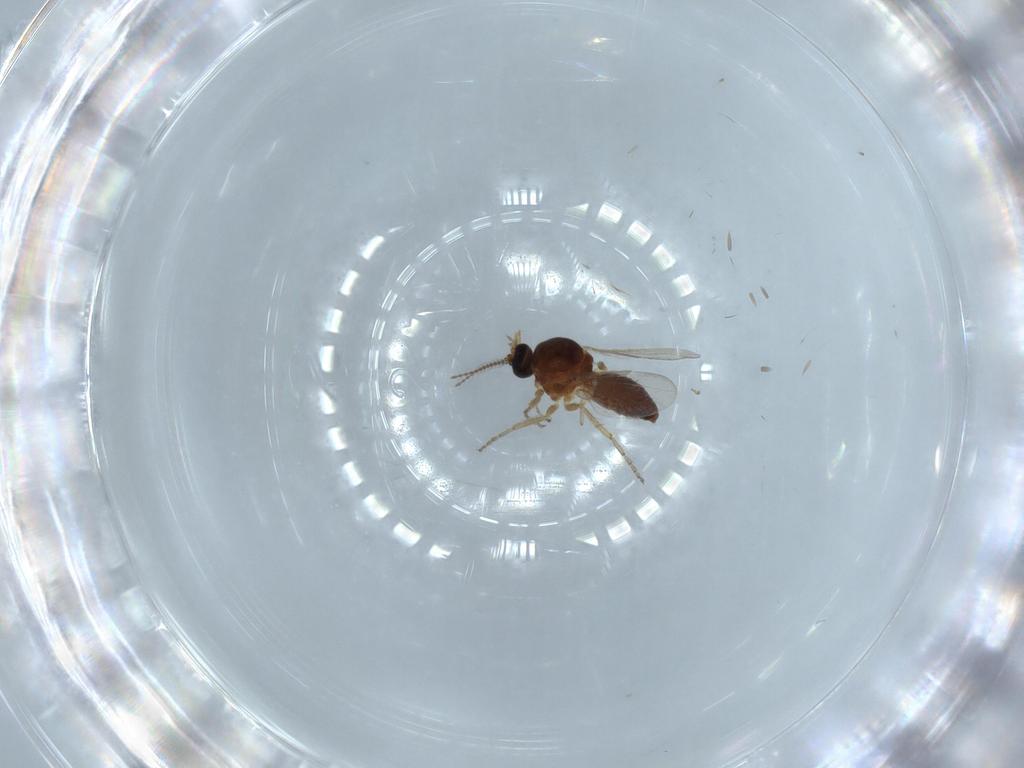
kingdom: Animalia
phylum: Arthropoda
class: Insecta
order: Diptera
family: Ceratopogonidae
